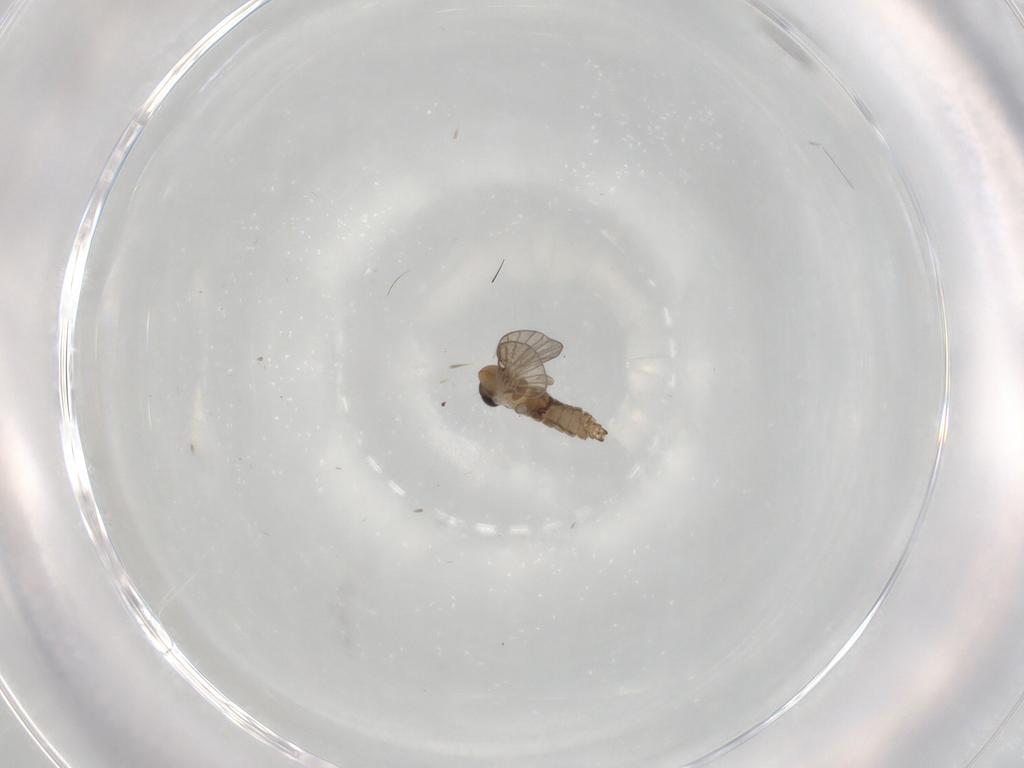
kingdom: Animalia
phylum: Arthropoda
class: Insecta
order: Diptera
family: Psychodidae
